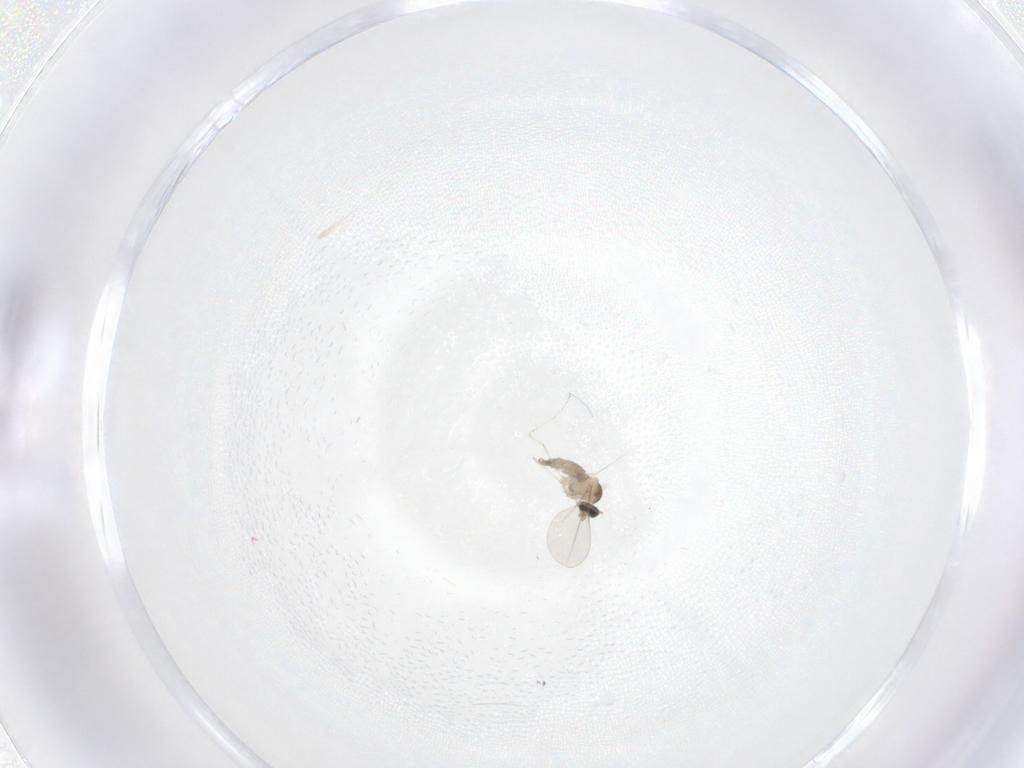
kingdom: Animalia
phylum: Arthropoda
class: Insecta
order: Diptera
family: Cecidomyiidae
